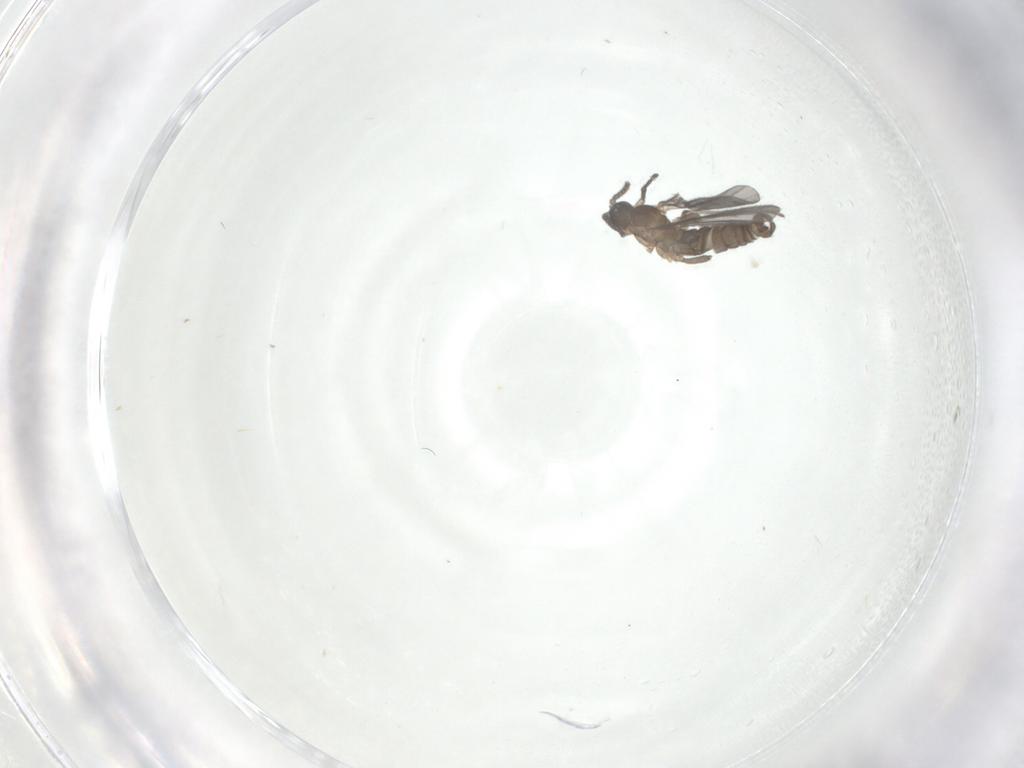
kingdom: Animalia
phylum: Arthropoda
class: Insecta
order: Diptera
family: Sciaridae
